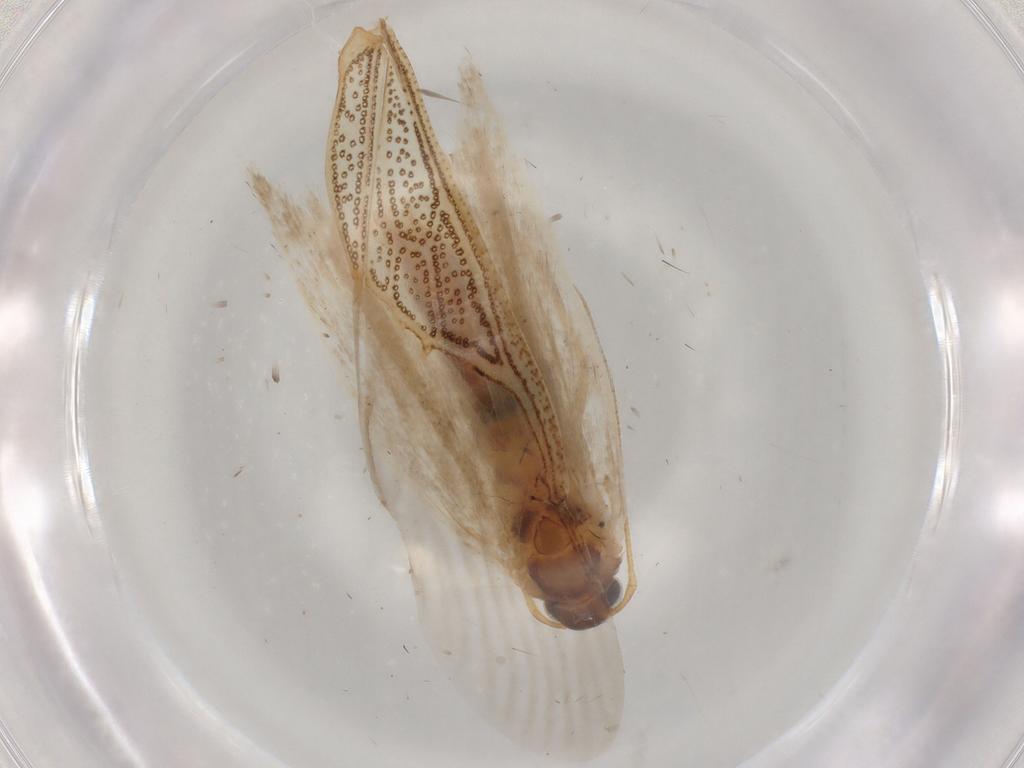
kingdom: Animalia
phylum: Arthropoda
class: Insecta
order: Lepidoptera
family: Gelechiidae
